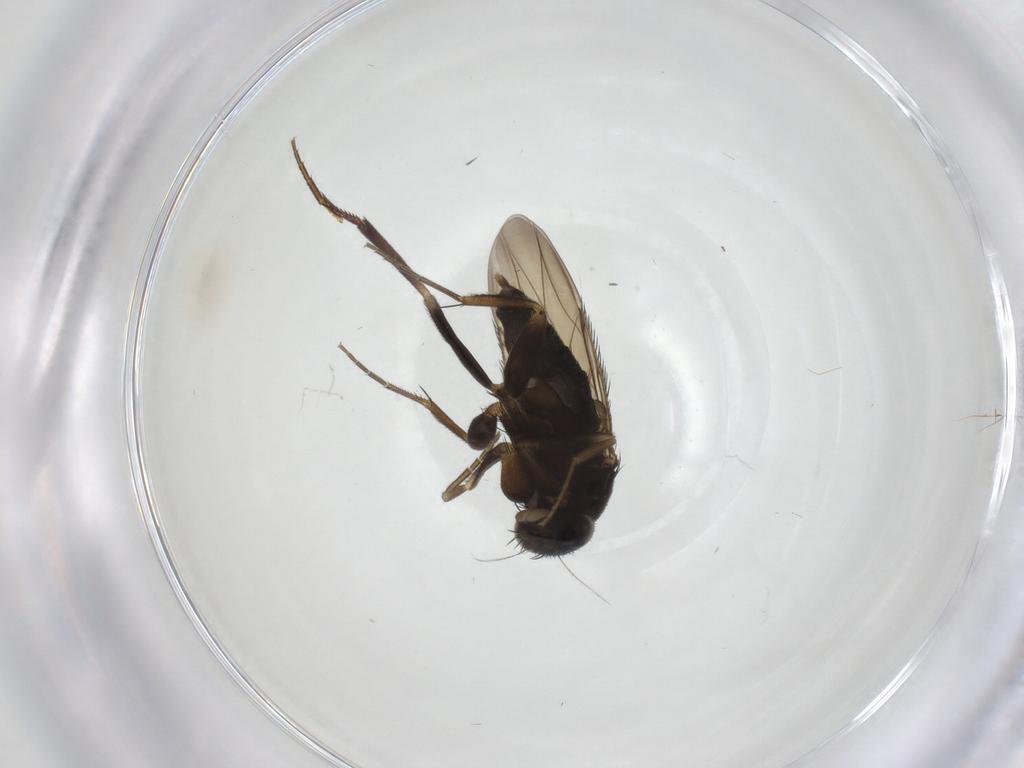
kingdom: Animalia
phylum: Arthropoda
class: Insecta
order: Diptera
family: Phoridae
